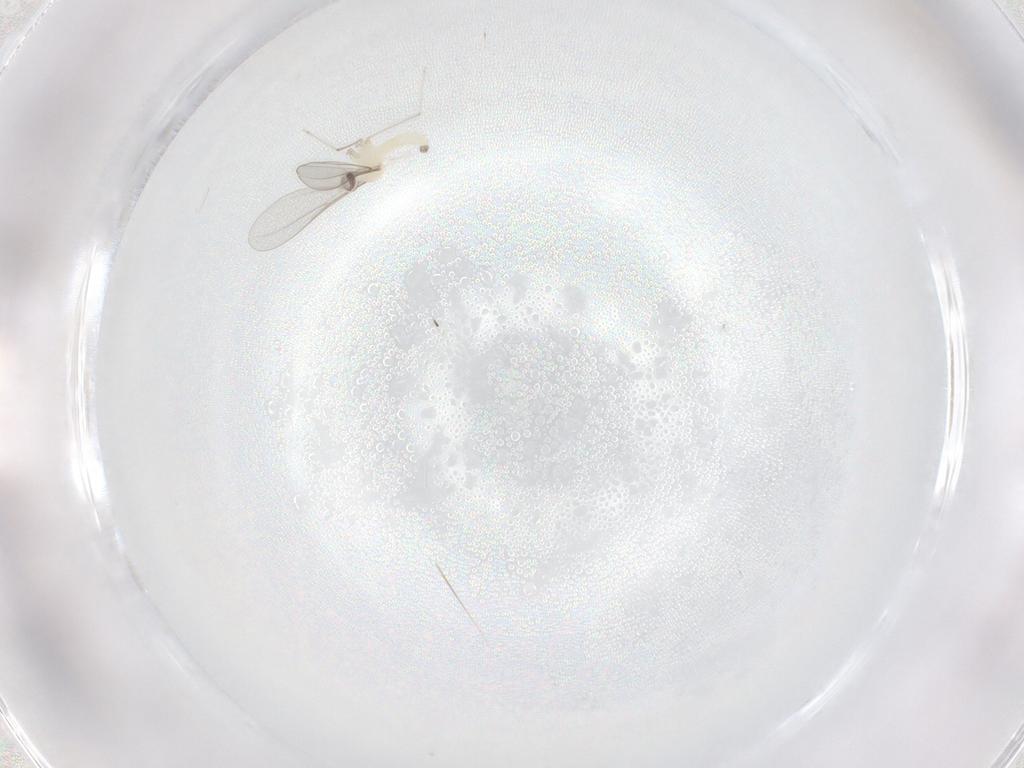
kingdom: Animalia
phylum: Arthropoda
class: Insecta
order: Diptera
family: Cecidomyiidae
